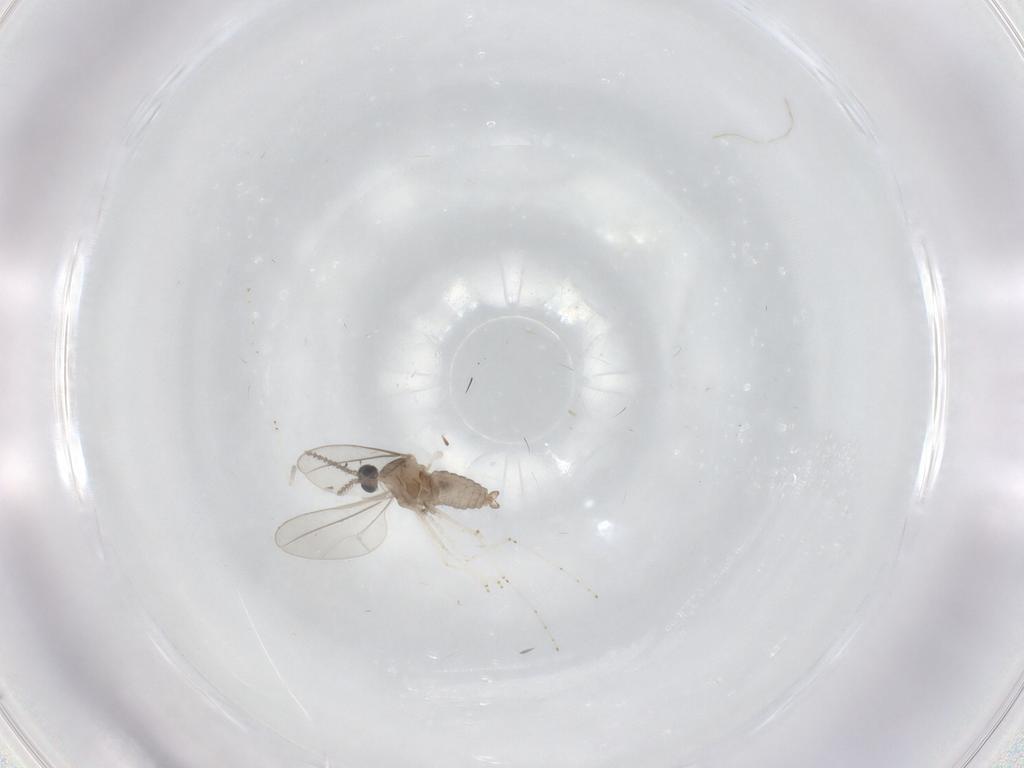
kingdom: Animalia
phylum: Arthropoda
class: Insecta
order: Diptera
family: Cecidomyiidae
